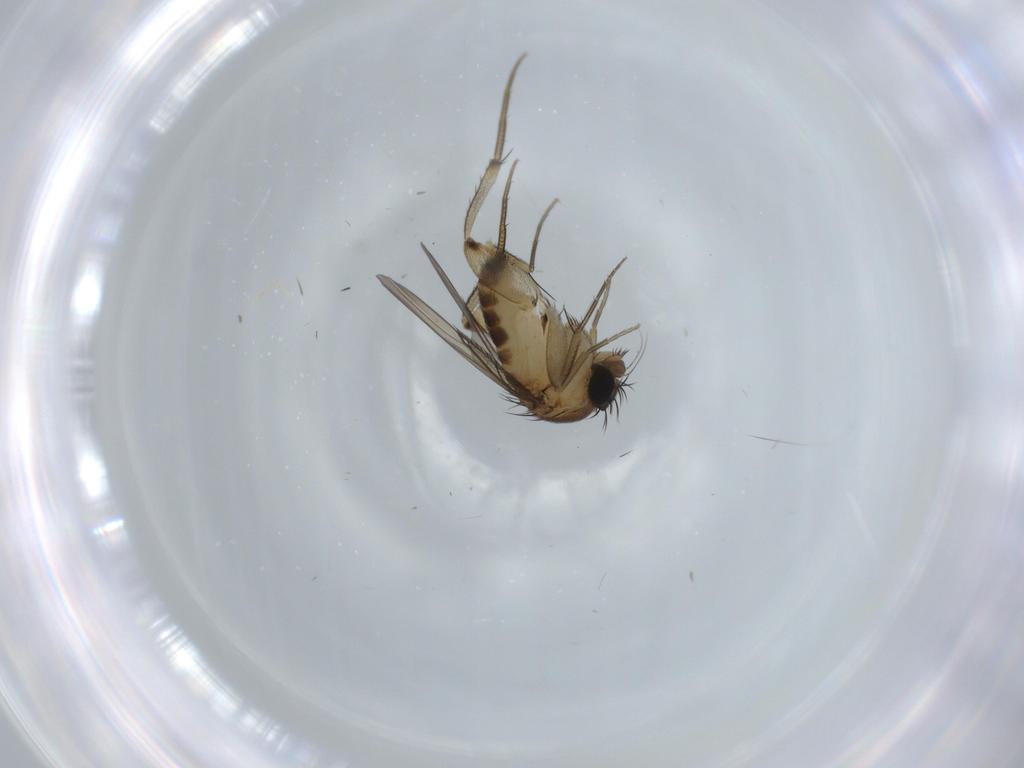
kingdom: Animalia
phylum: Arthropoda
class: Insecta
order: Diptera
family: Phoridae
